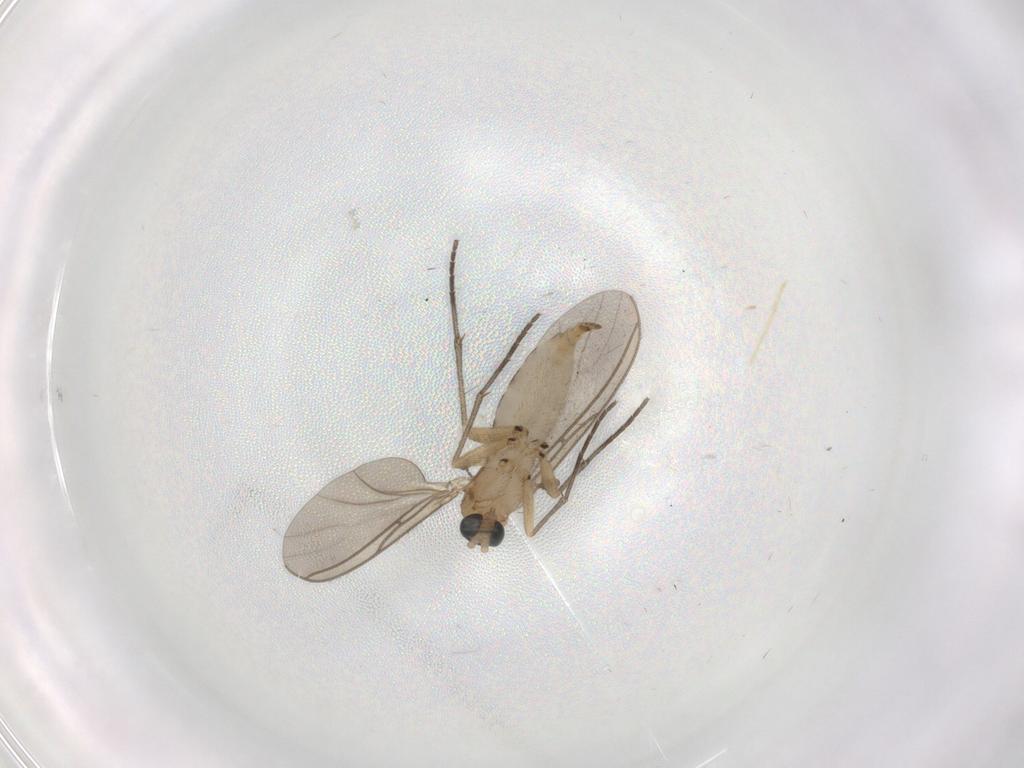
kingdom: Animalia
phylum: Arthropoda
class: Insecta
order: Diptera
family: Sciaridae
